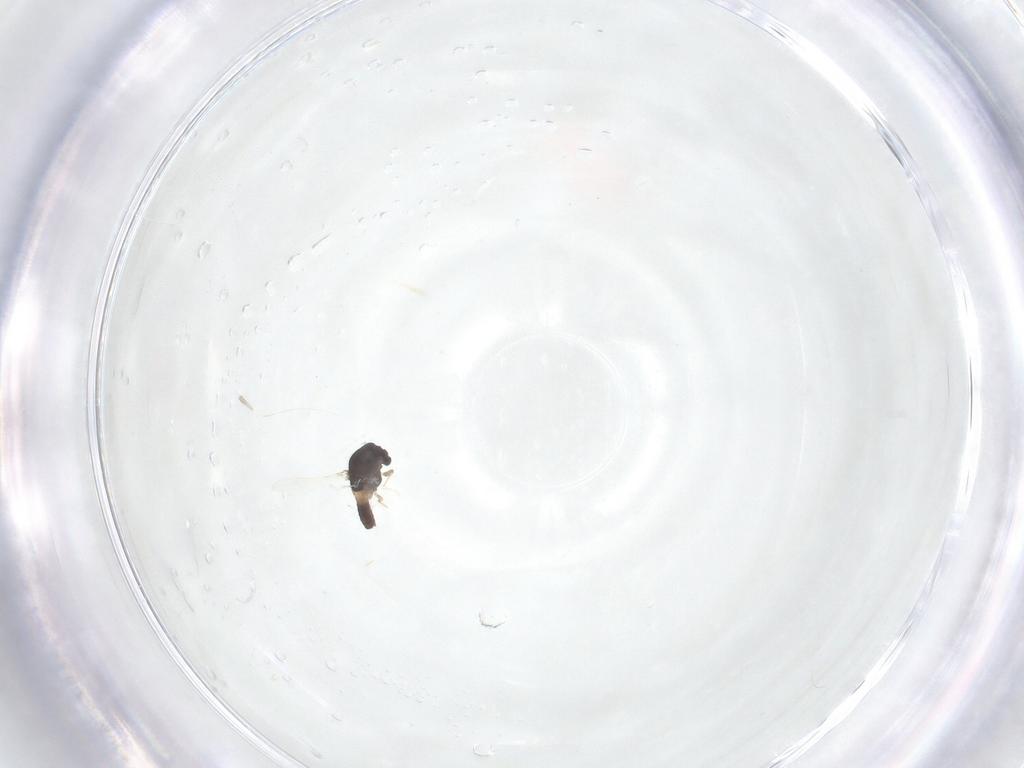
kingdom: Animalia
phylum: Arthropoda
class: Insecta
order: Diptera
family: Chironomidae
